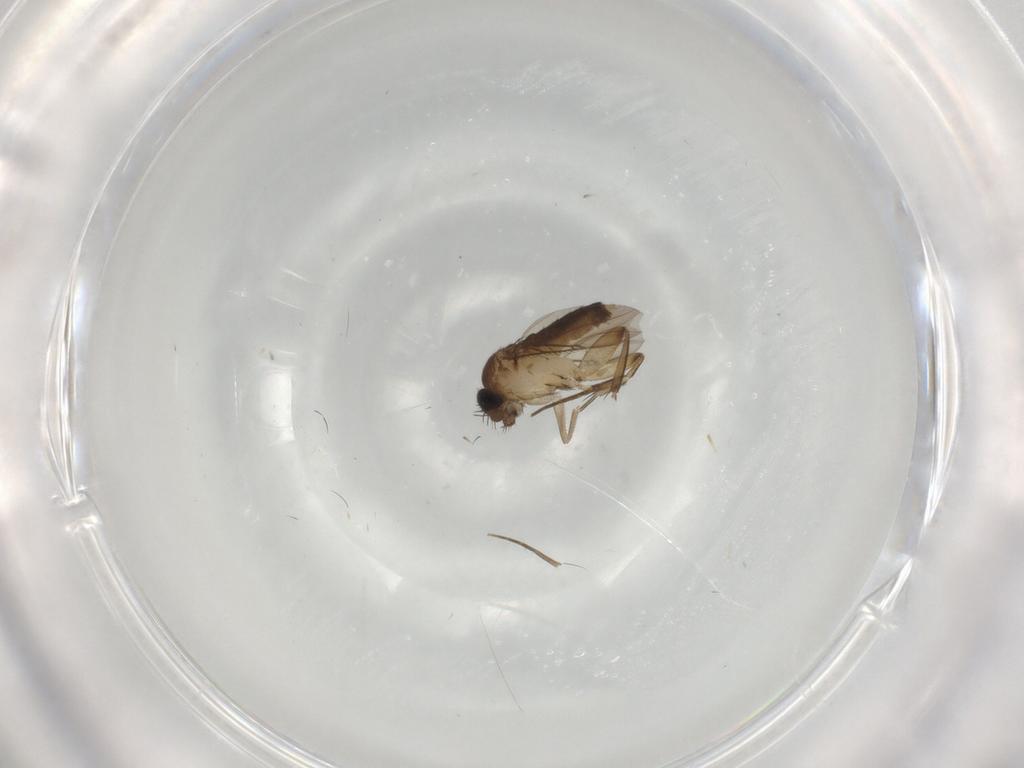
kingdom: Animalia
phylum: Arthropoda
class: Insecta
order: Diptera
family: Phoridae
